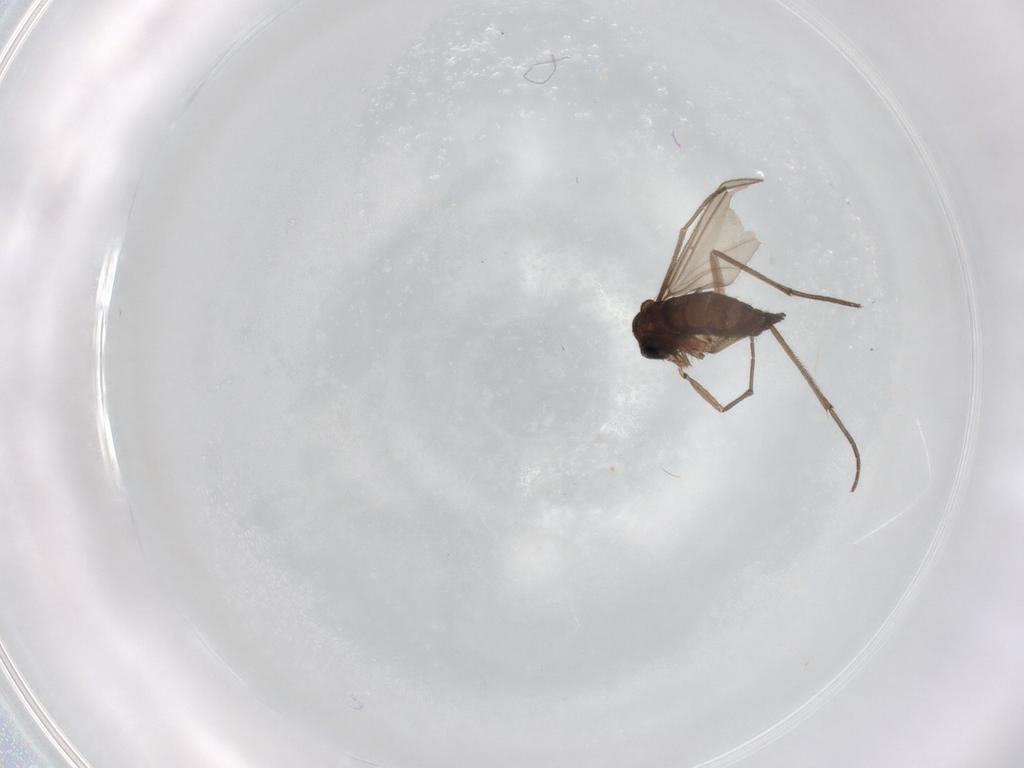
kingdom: Animalia
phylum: Arthropoda
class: Insecta
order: Diptera
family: Sciaridae
